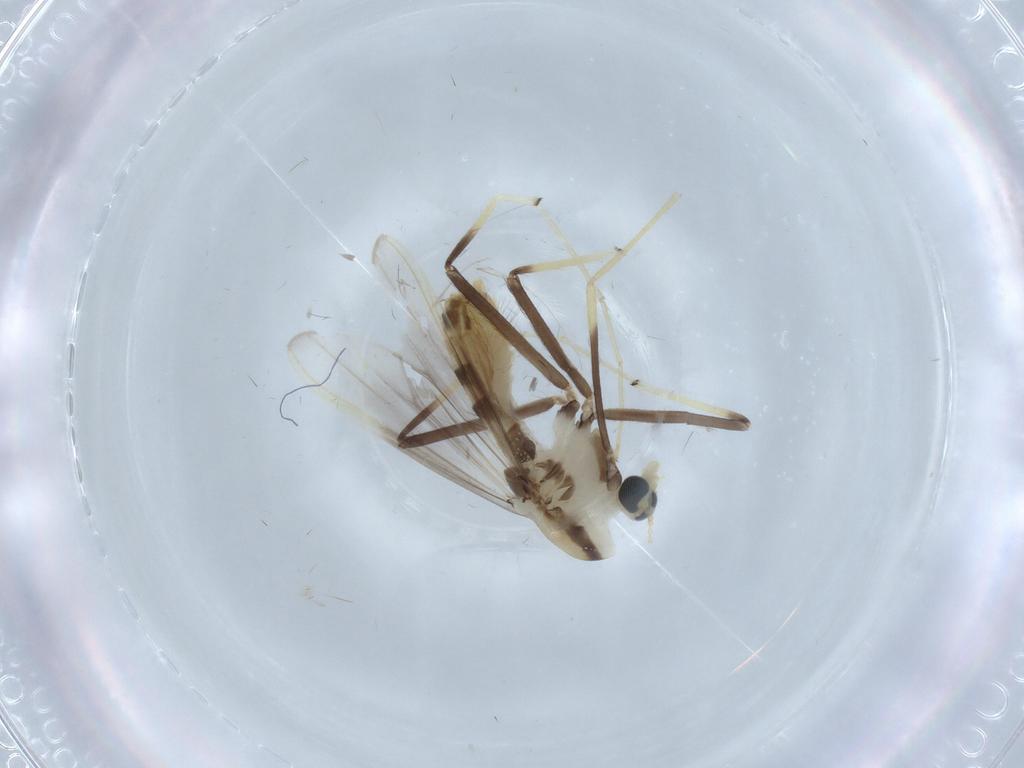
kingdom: Animalia
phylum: Arthropoda
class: Insecta
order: Diptera
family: Chironomidae
